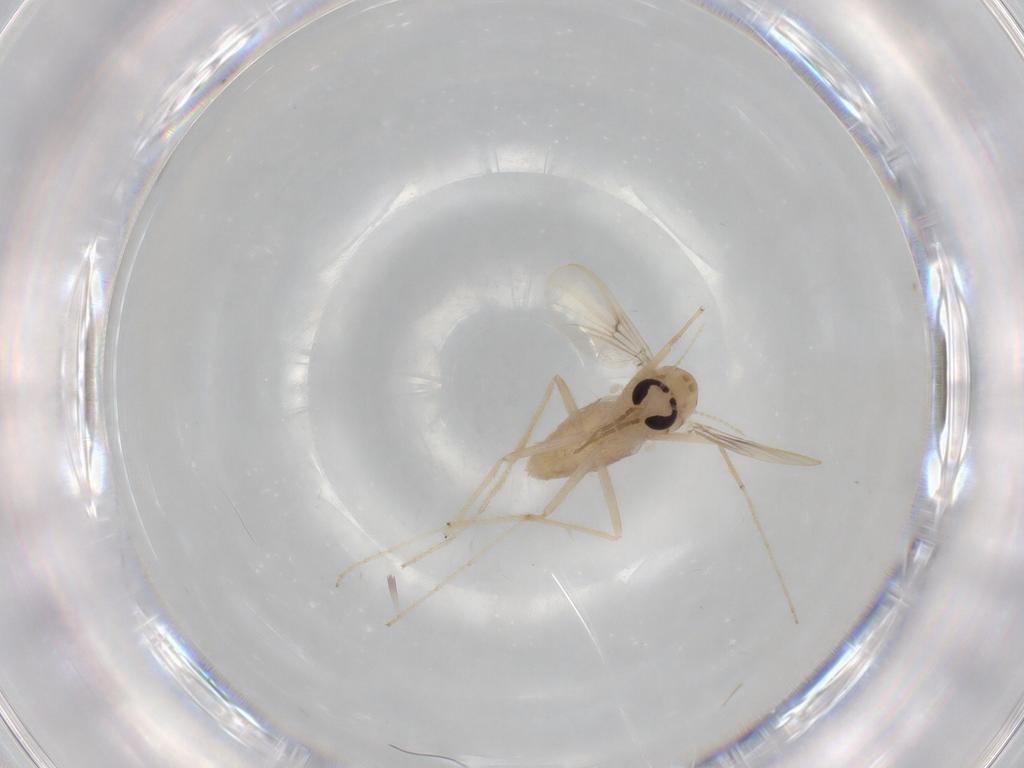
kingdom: Animalia
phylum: Arthropoda
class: Insecta
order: Diptera
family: Chironomidae
